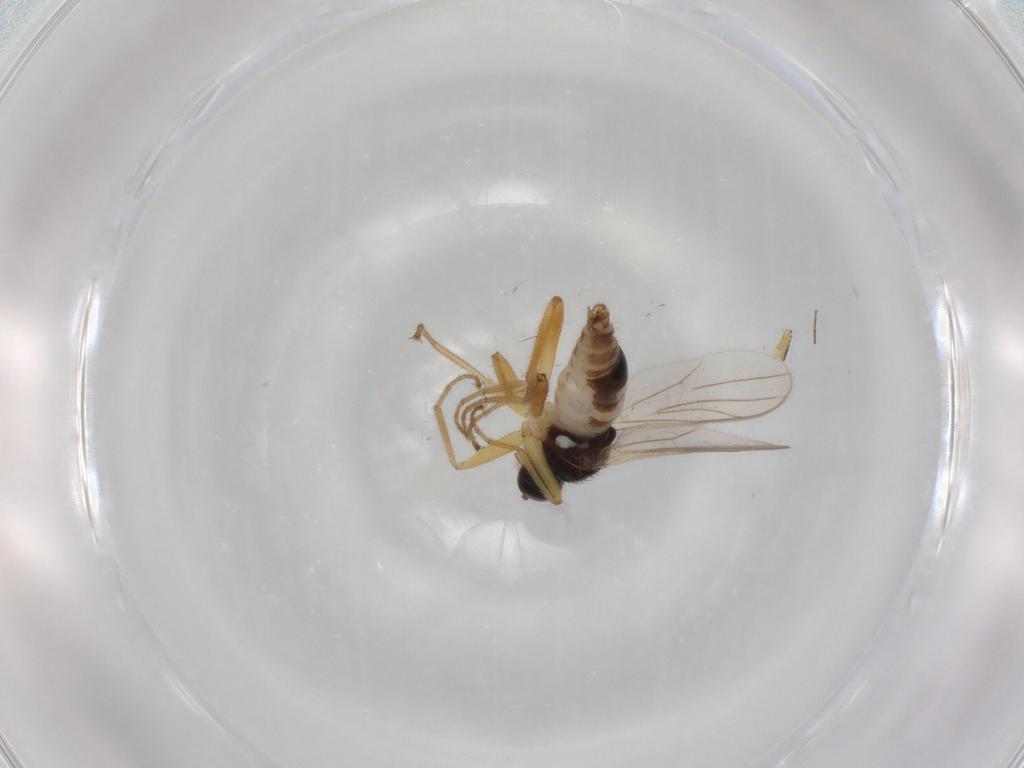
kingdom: Animalia
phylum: Arthropoda
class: Insecta
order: Diptera
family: Hybotidae
